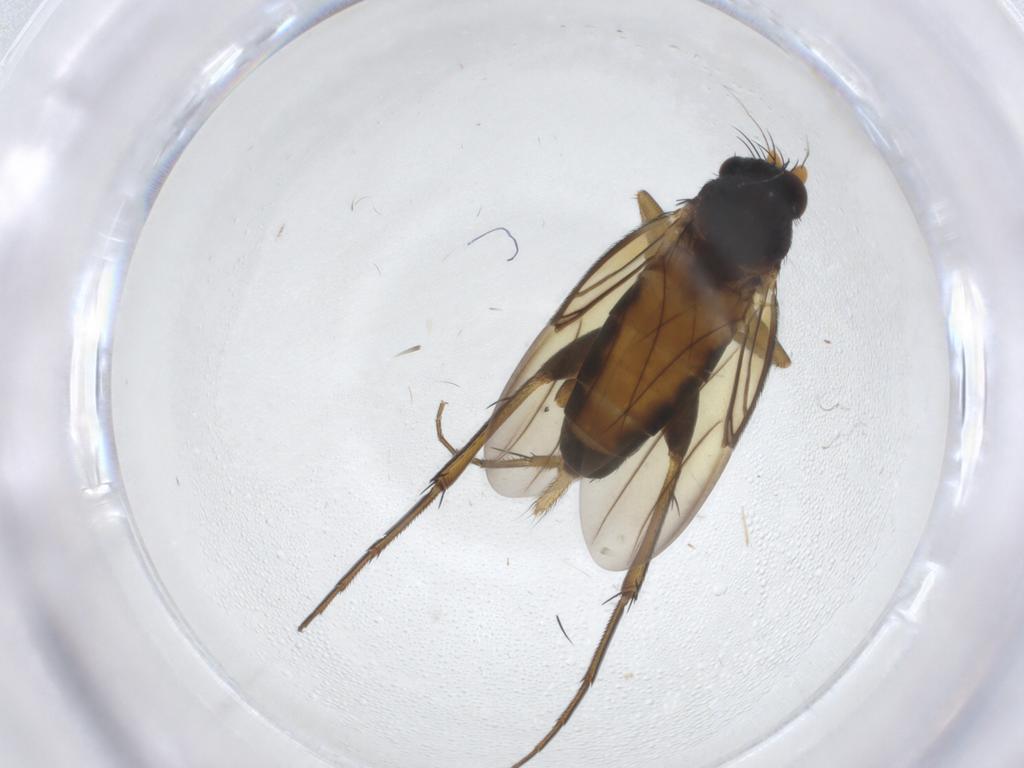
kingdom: Animalia
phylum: Arthropoda
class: Insecta
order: Diptera
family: Phoridae
